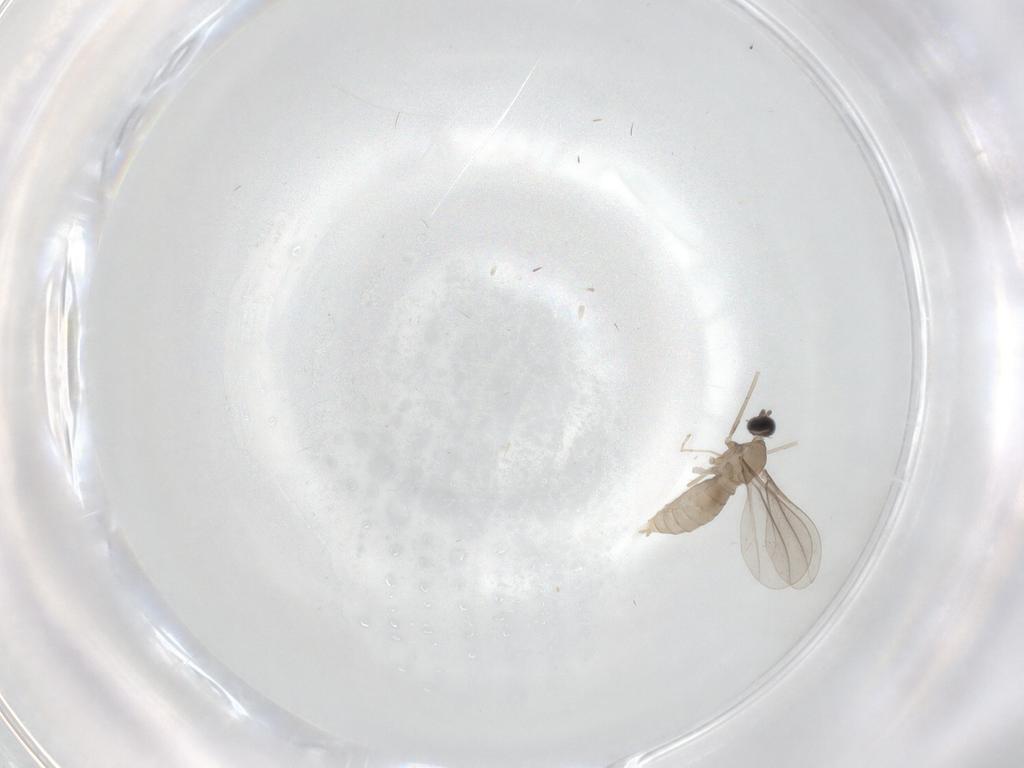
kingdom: Animalia
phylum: Arthropoda
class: Insecta
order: Diptera
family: Cecidomyiidae
